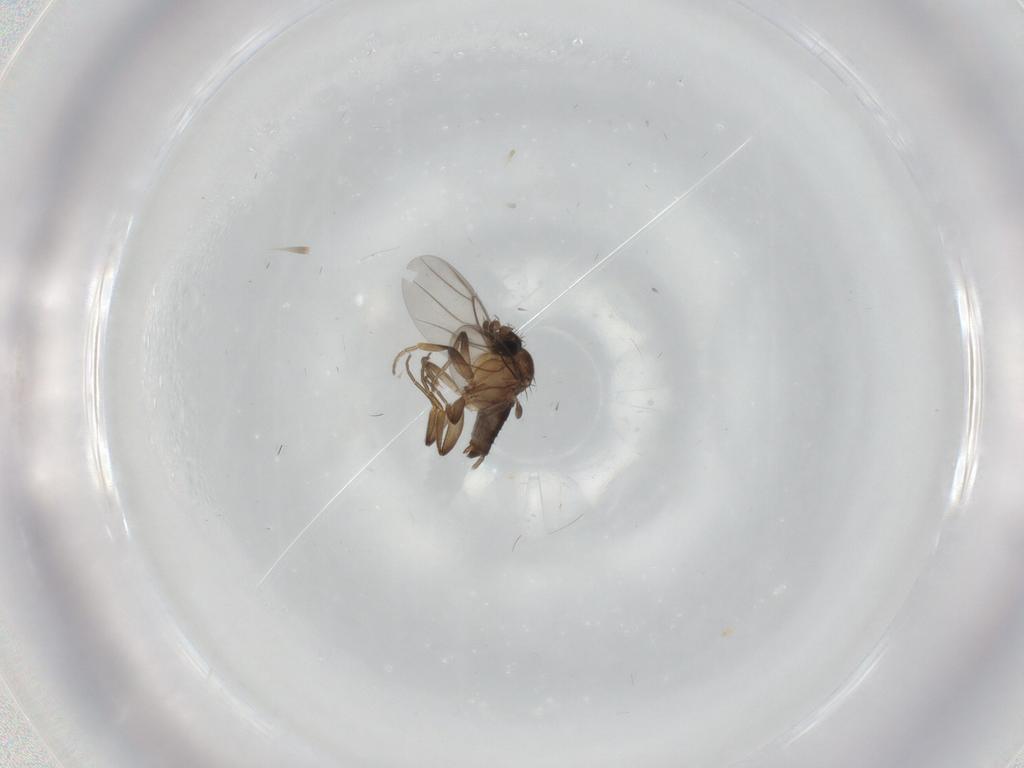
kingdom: Animalia
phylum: Arthropoda
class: Insecta
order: Diptera
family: Phoridae
